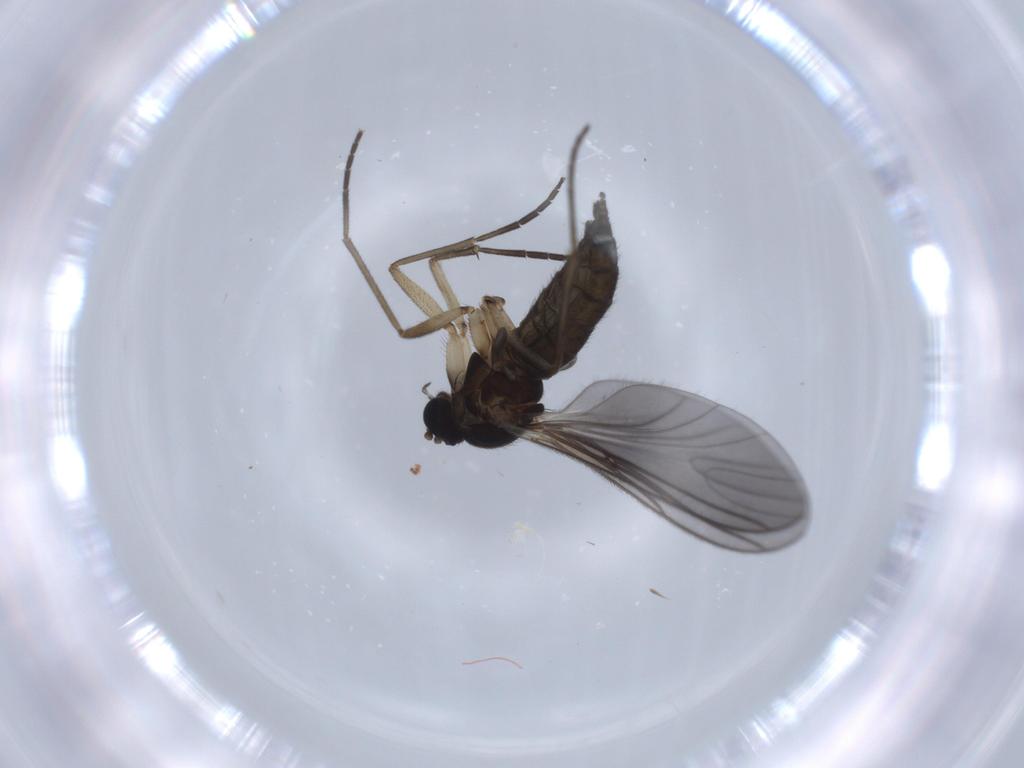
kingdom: Animalia
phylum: Arthropoda
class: Insecta
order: Diptera
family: Sciaridae
